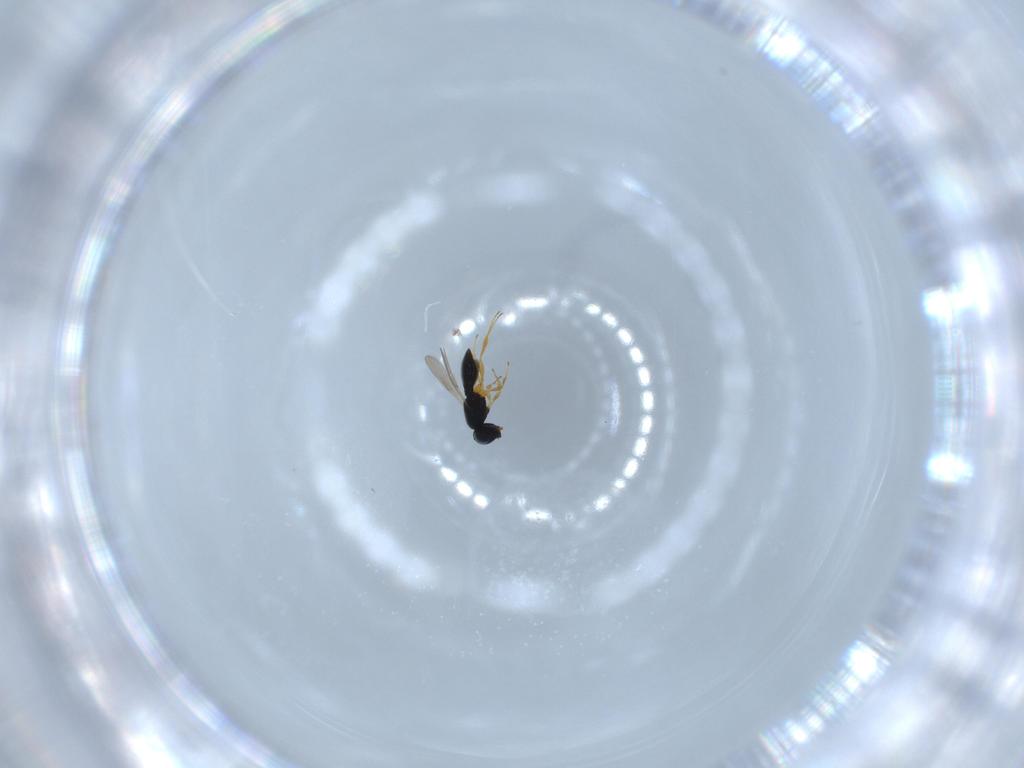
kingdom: Animalia
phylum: Arthropoda
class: Insecta
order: Hymenoptera
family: Scelionidae
